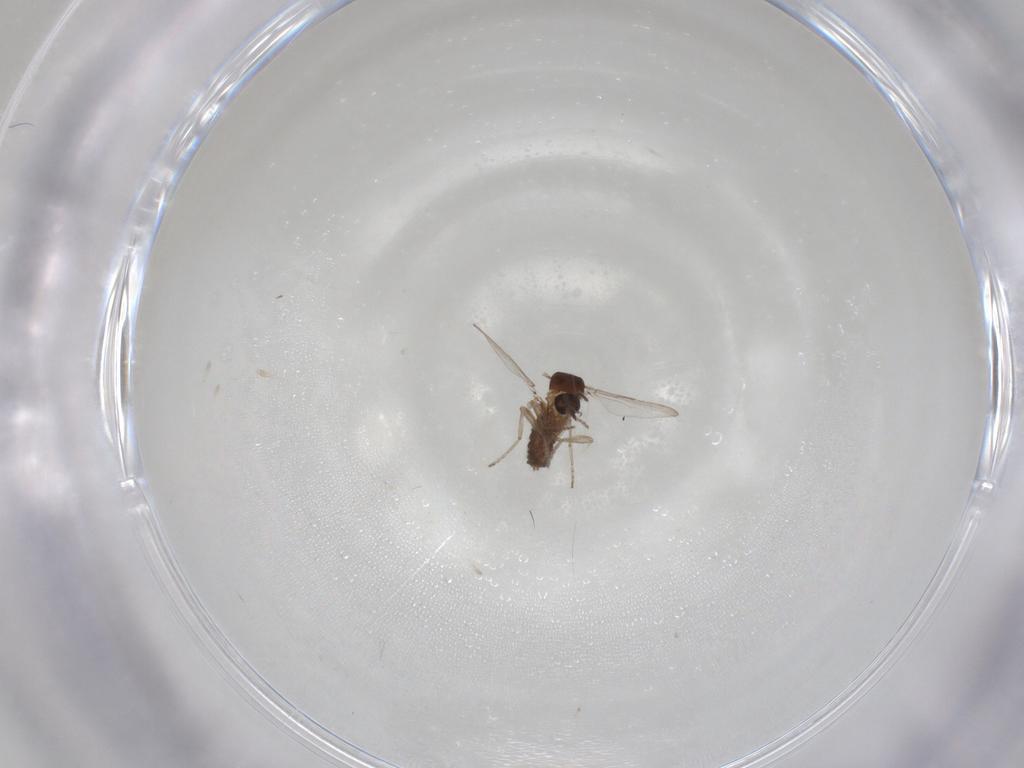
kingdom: Animalia
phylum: Arthropoda
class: Insecta
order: Diptera
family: Ceratopogonidae
